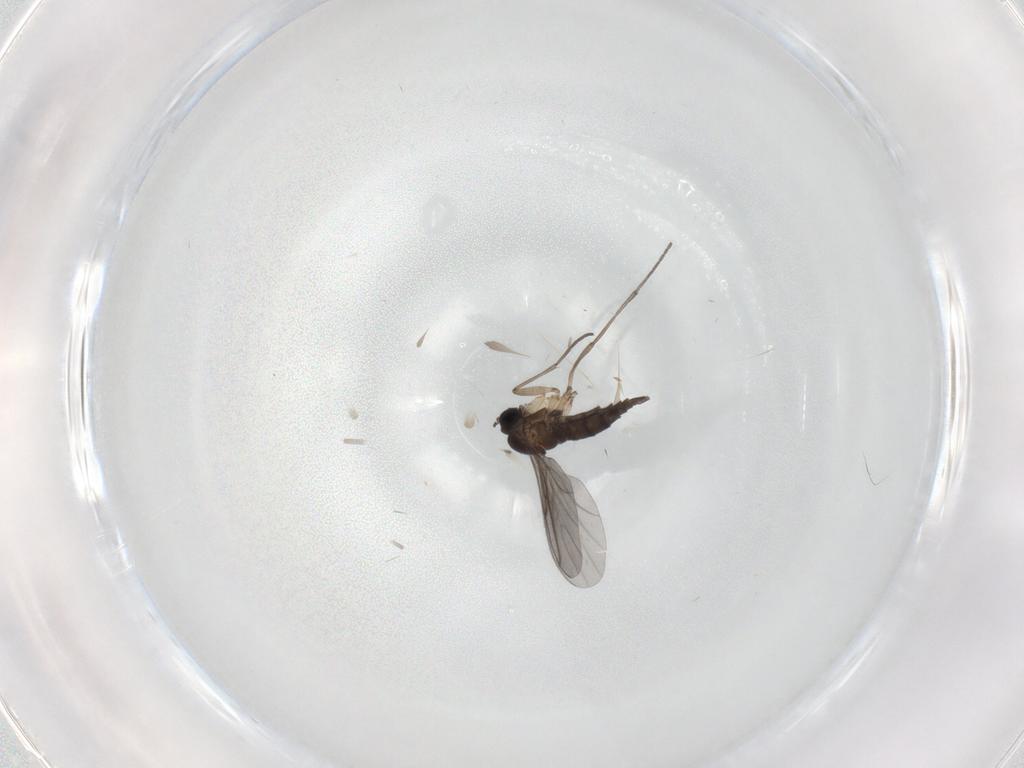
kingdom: Animalia
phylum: Arthropoda
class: Insecta
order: Diptera
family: Sciaridae
